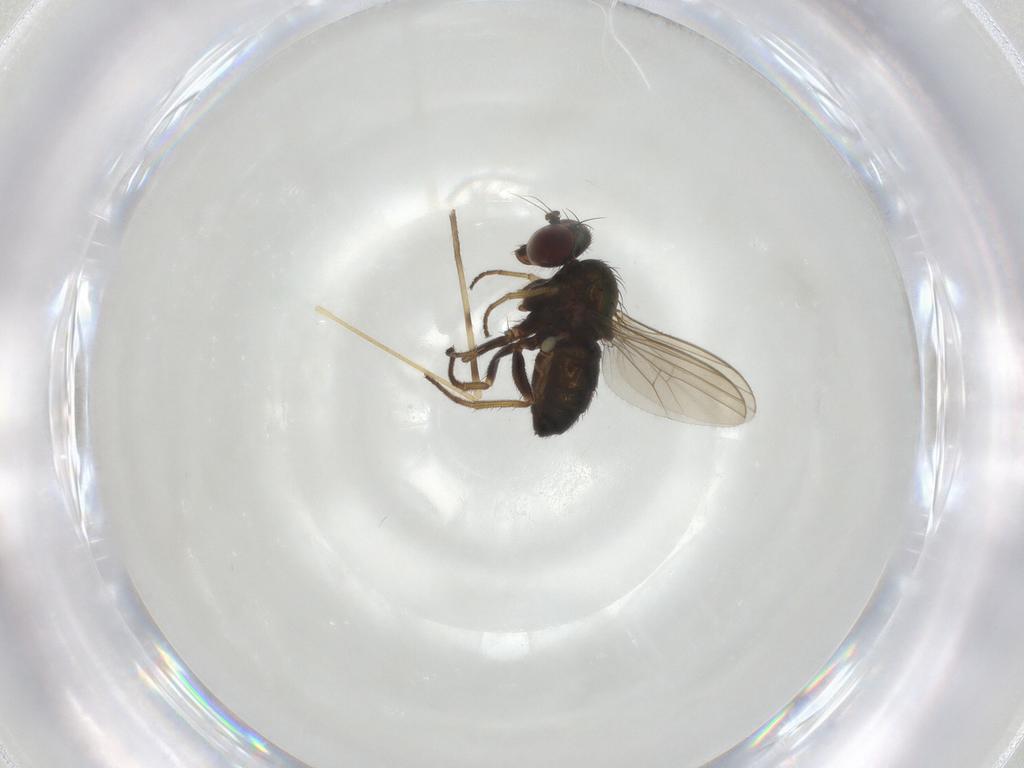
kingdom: Animalia
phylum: Arthropoda
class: Insecta
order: Diptera
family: Dolichopodidae
